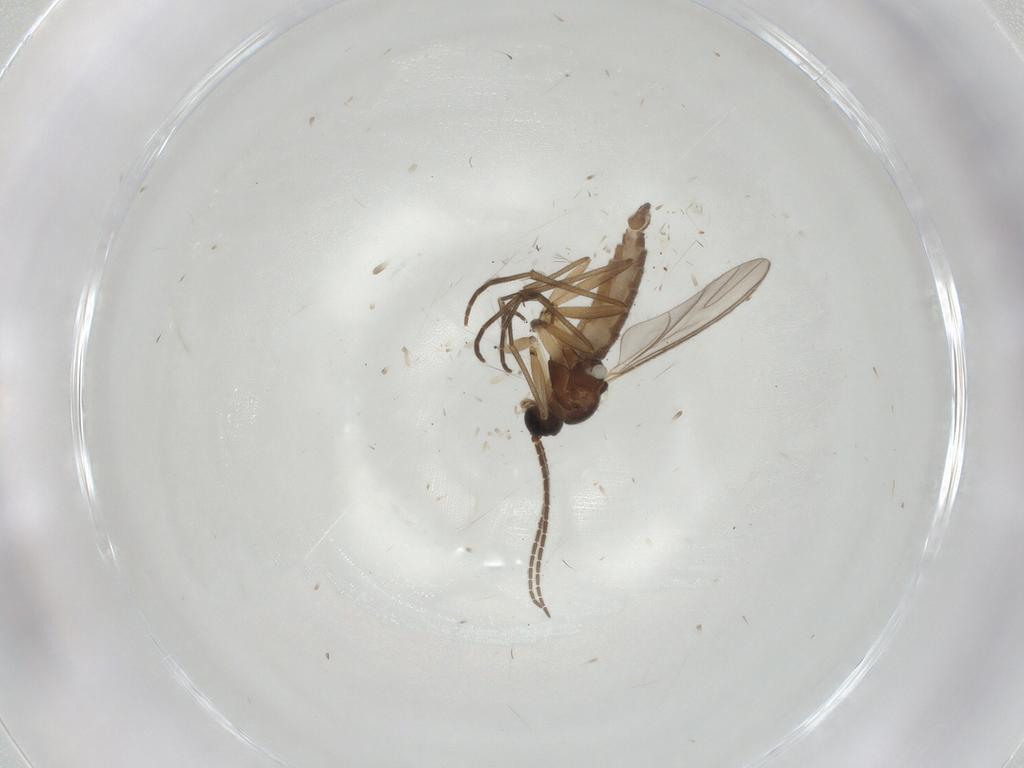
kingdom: Animalia
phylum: Arthropoda
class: Insecta
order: Diptera
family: Sciaridae
